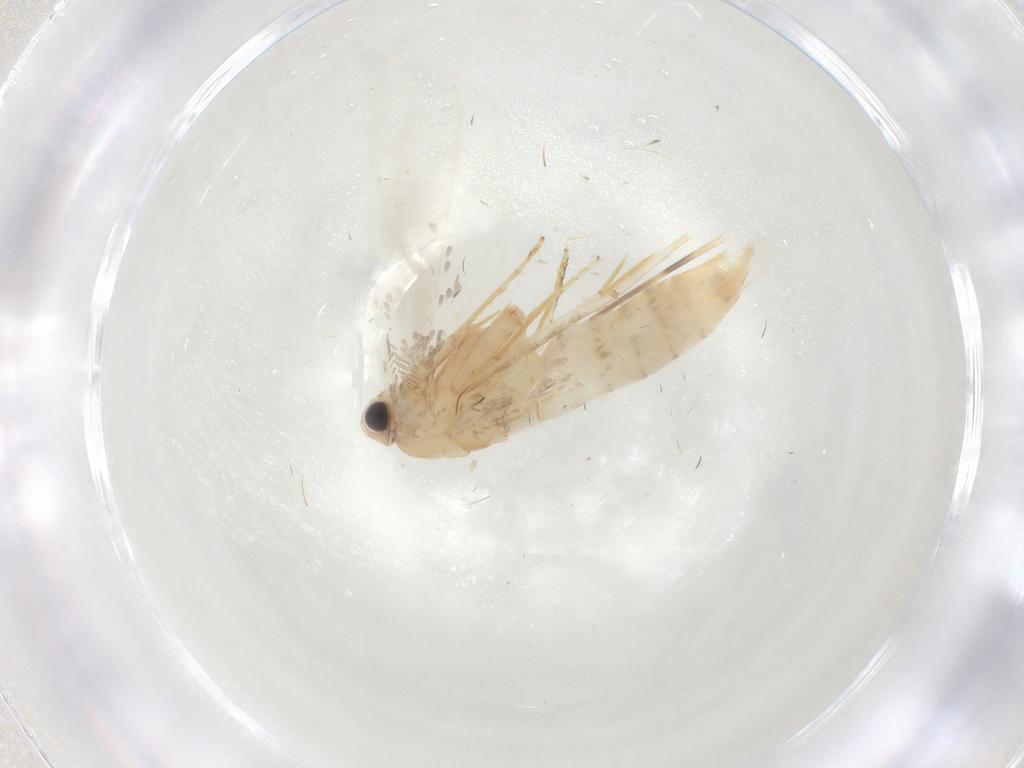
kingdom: Animalia
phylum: Arthropoda
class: Insecta
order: Lepidoptera
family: Tineidae
